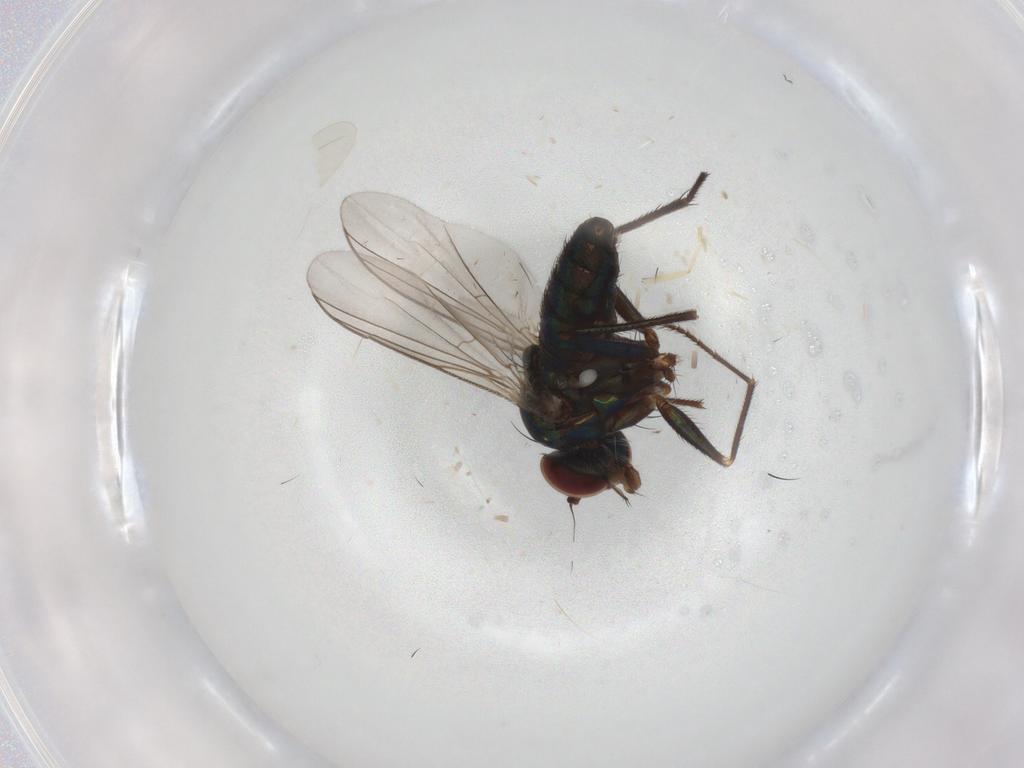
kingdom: Animalia
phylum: Arthropoda
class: Insecta
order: Diptera
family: Dolichopodidae
